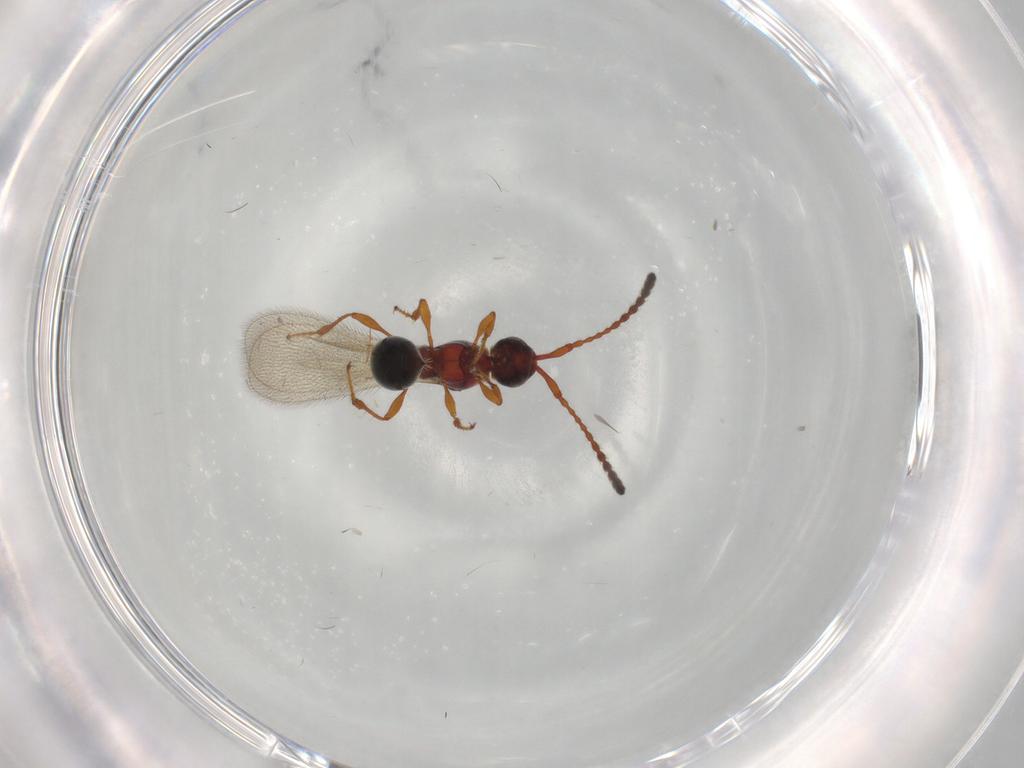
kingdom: Animalia
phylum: Arthropoda
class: Insecta
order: Hymenoptera
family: Diapriidae
